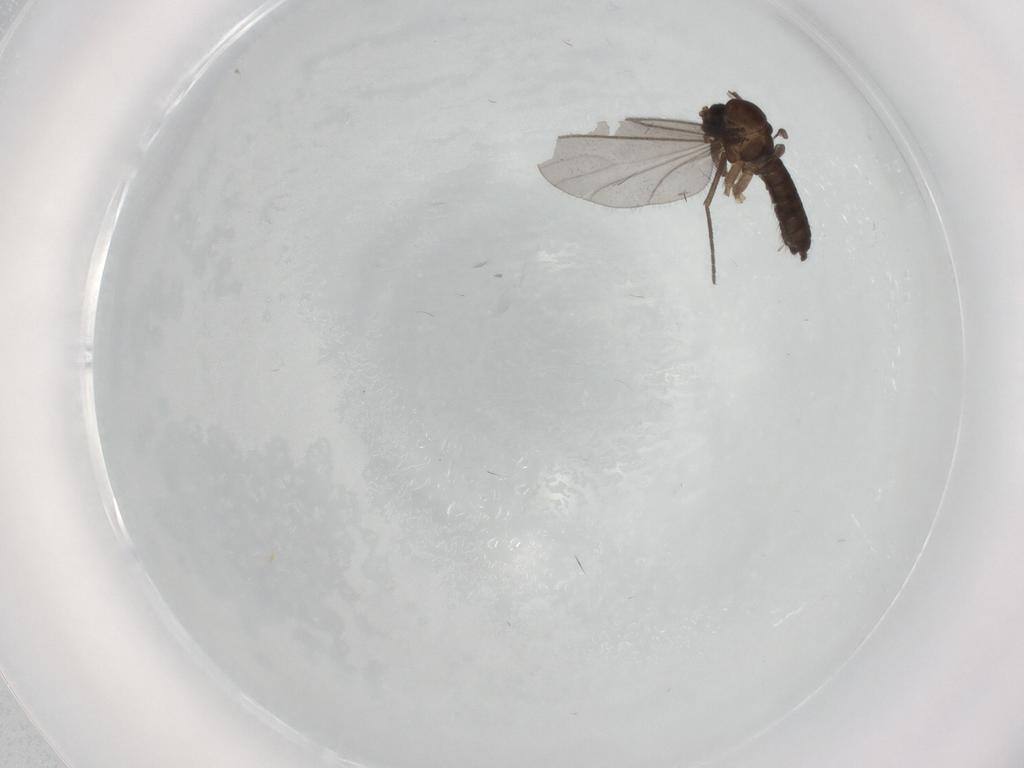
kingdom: Animalia
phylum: Arthropoda
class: Insecta
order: Diptera
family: Sciaridae
